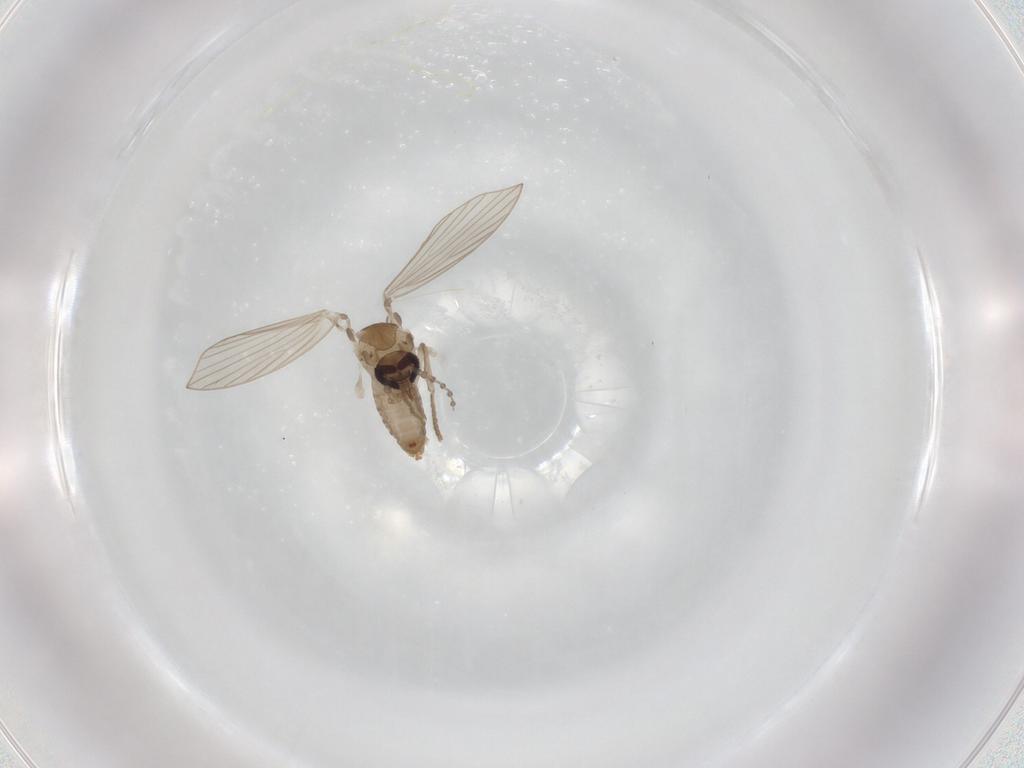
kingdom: Animalia
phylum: Arthropoda
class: Insecta
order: Diptera
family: Psychodidae
